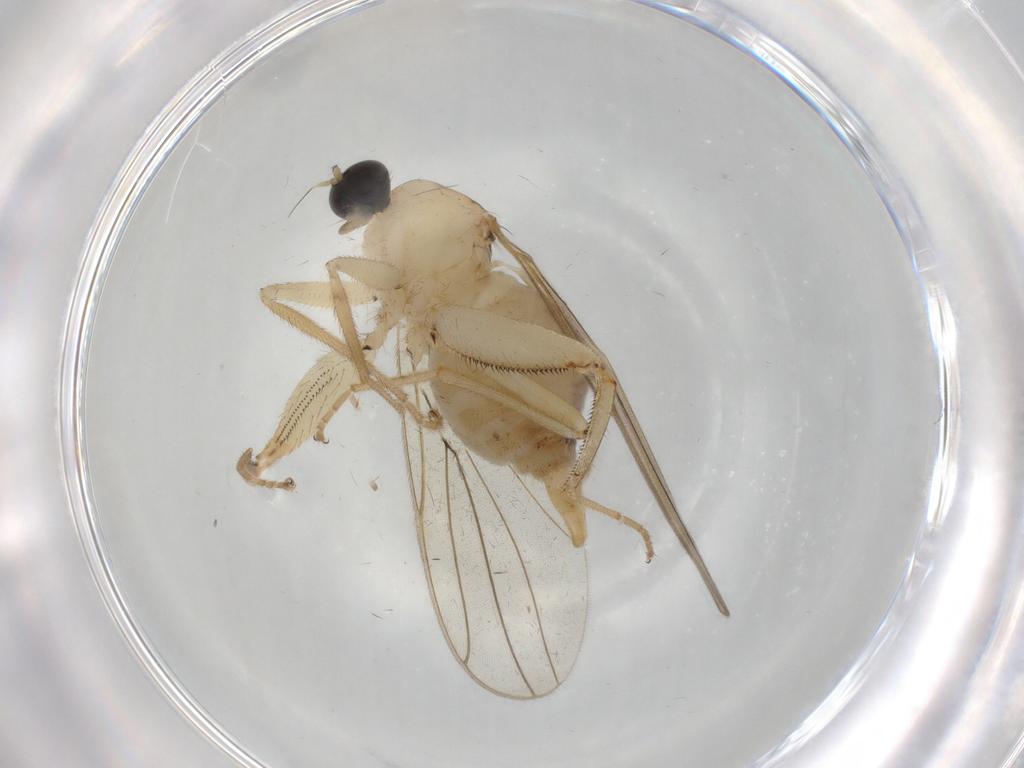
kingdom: Animalia
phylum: Arthropoda
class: Insecta
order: Diptera
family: Hybotidae
